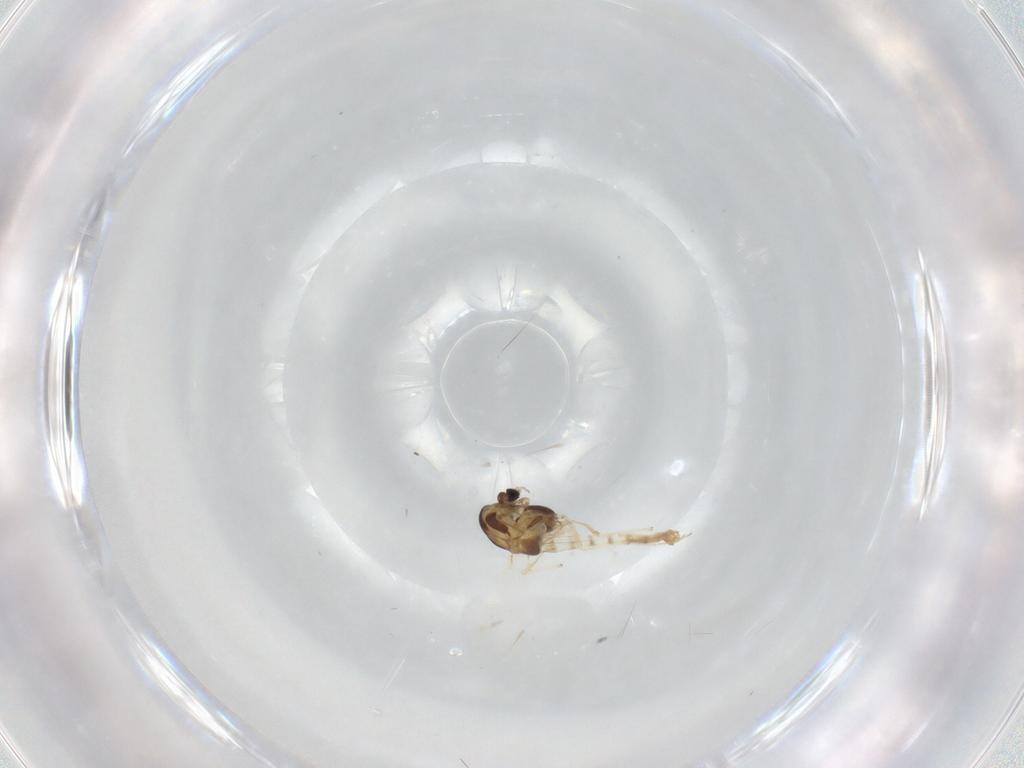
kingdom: Animalia
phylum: Arthropoda
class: Insecta
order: Diptera
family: Chironomidae
